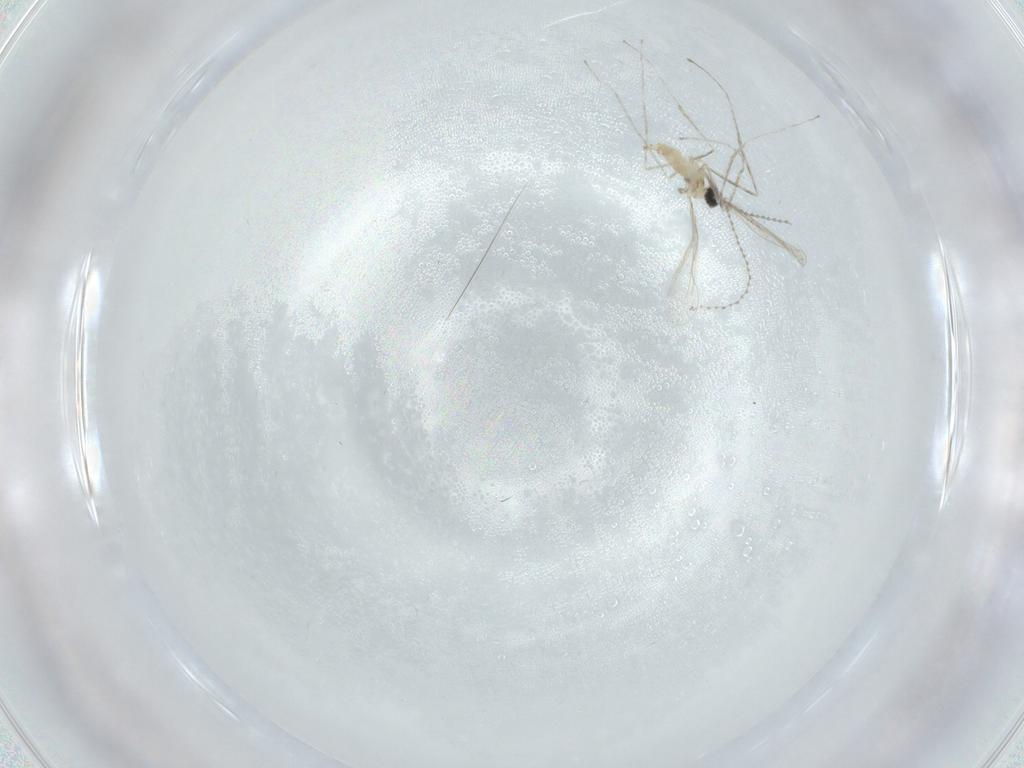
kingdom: Animalia
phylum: Arthropoda
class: Insecta
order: Diptera
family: Cecidomyiidae
